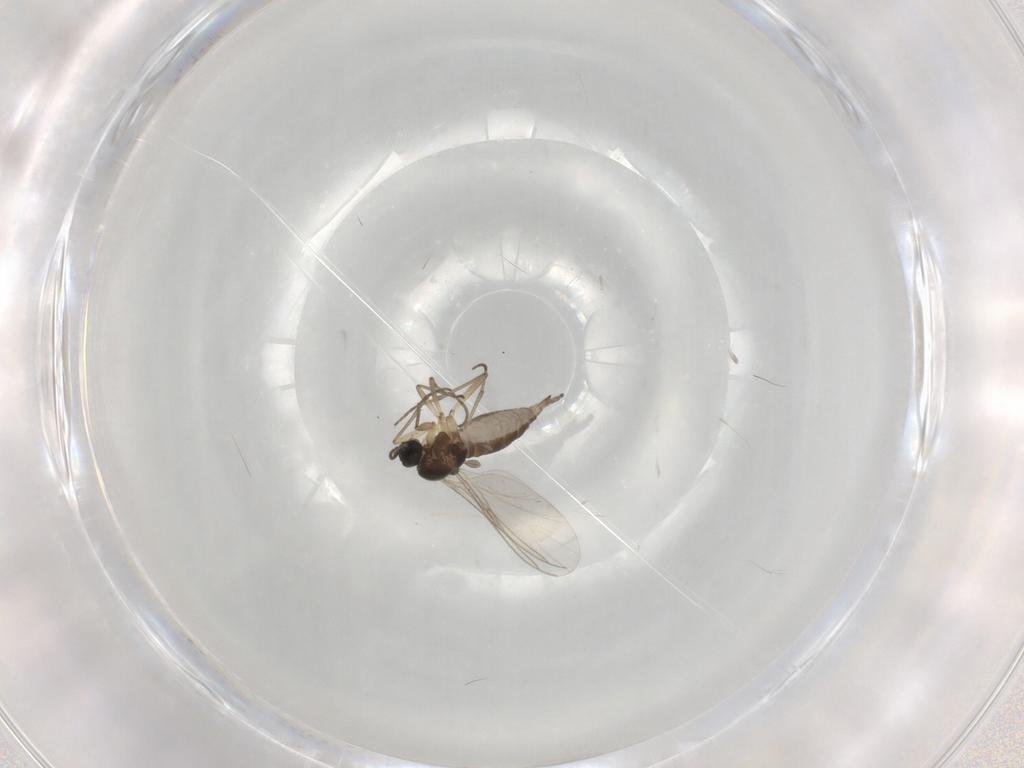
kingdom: Animalia
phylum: Arthropoda
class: Insecta
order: Diptera
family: Sciaridae
